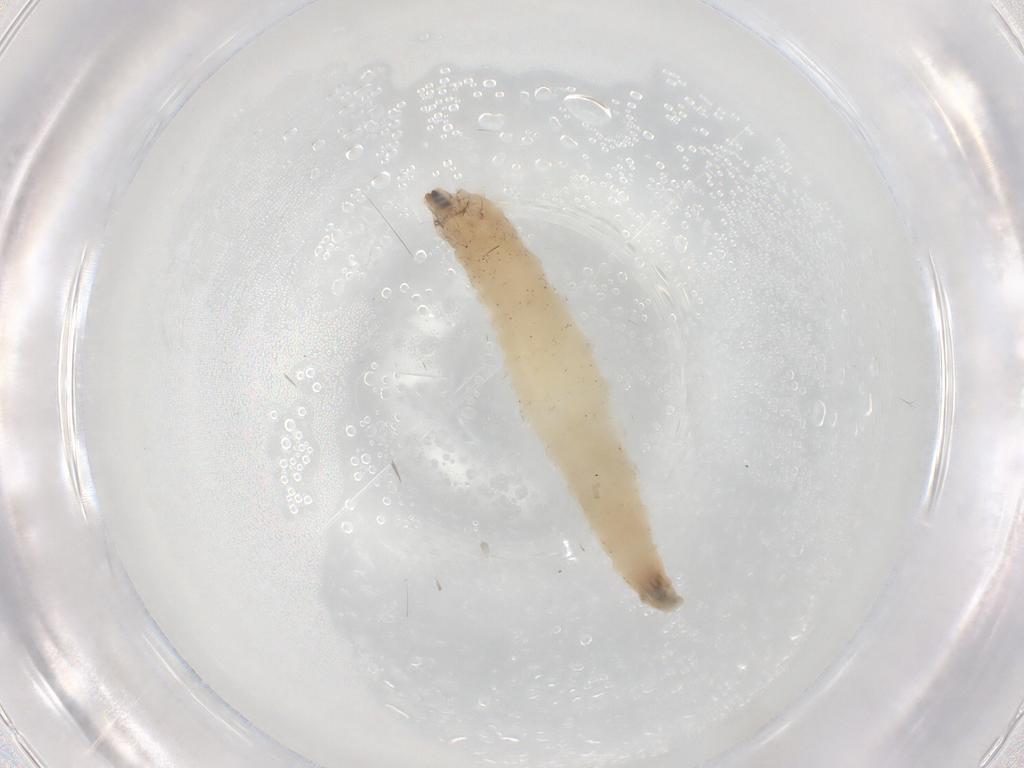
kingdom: Animalia
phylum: Arthropoda
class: Insecta
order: Diptera
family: Drosophilidae
